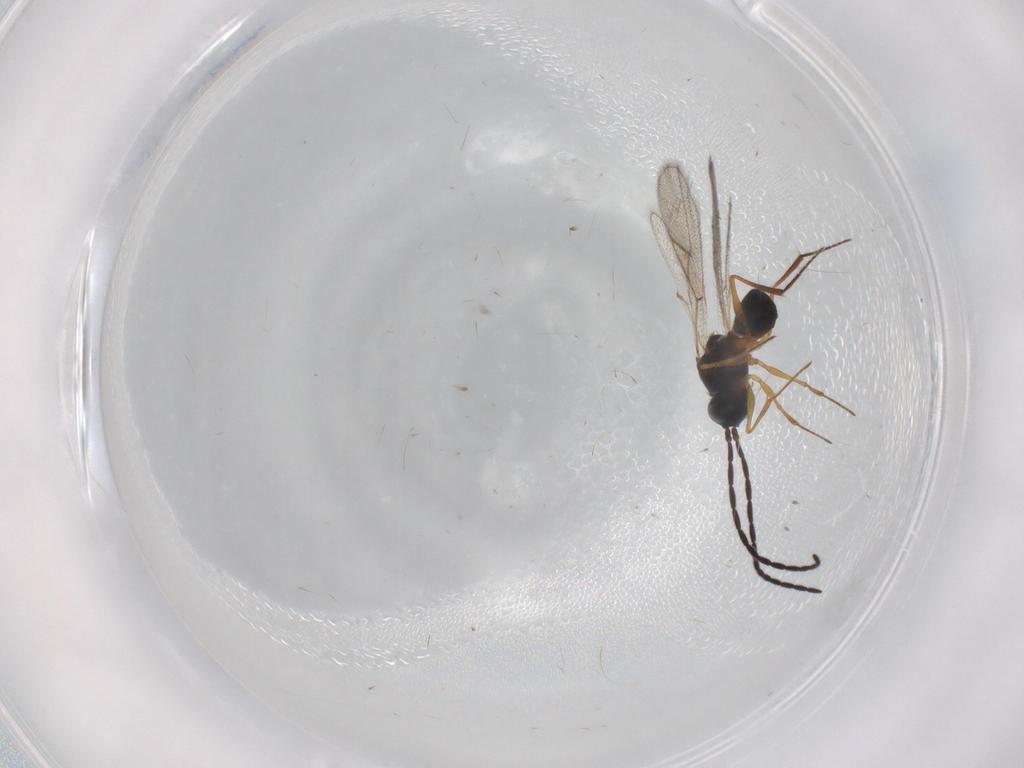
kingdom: Animalia
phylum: Arthropoda
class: Insecta
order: Hymenoptera
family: Figitidae
